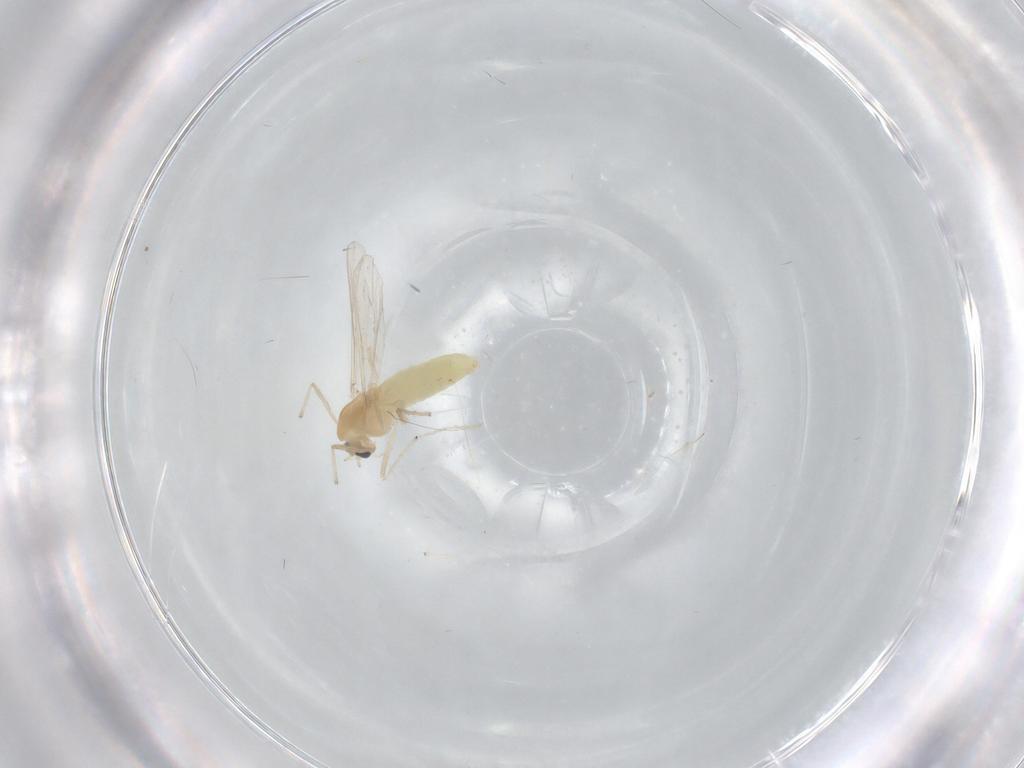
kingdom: Animalia
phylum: Arthropoda
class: Insecta
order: Diptera
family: Chironomidae
